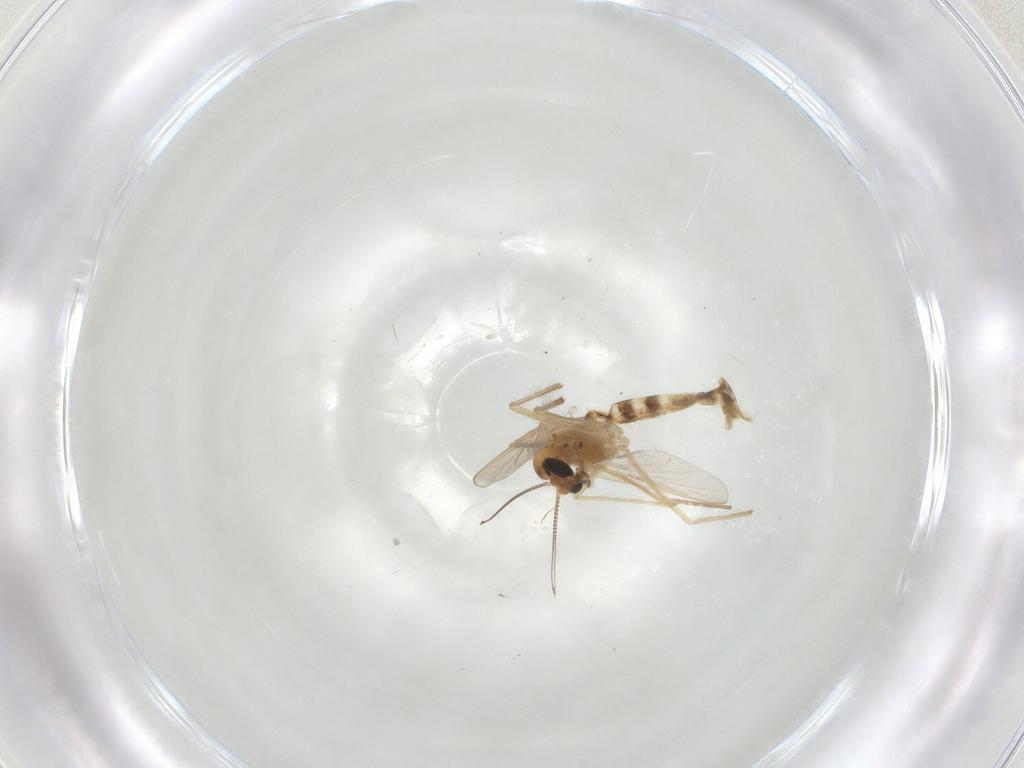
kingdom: Animalia
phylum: Arthropoda
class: Insecta
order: Diptera
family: Chironomidae
